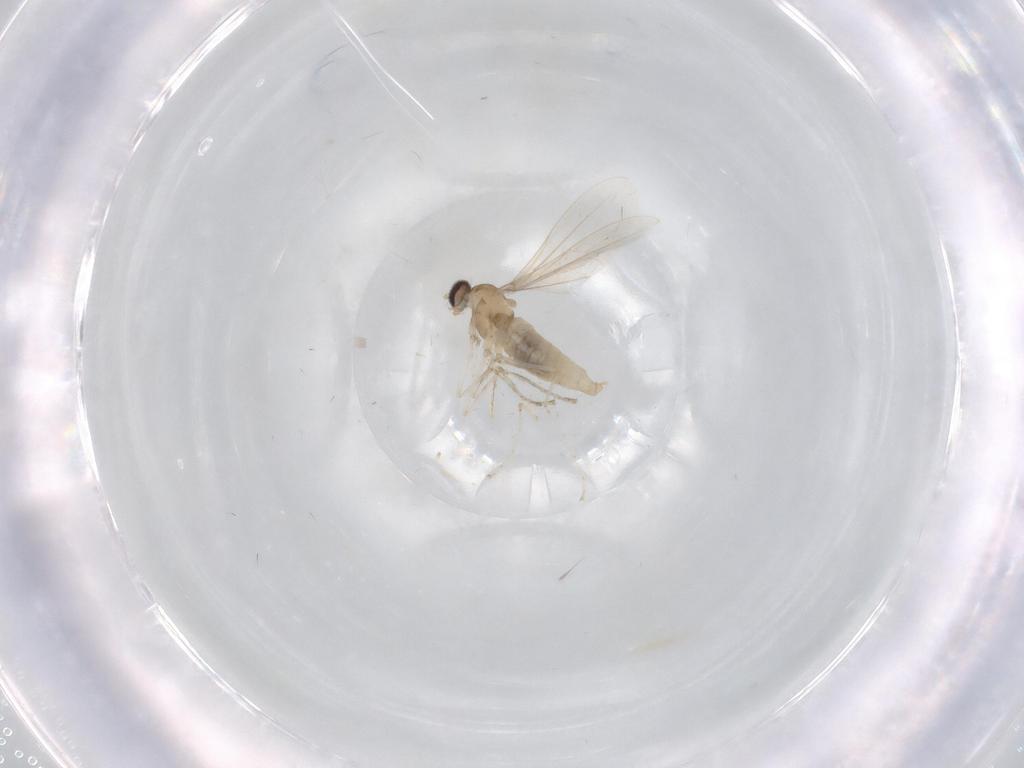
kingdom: Animalia
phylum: Arthropoda
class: Insecta
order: Diptera
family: Cecidomyiidae
